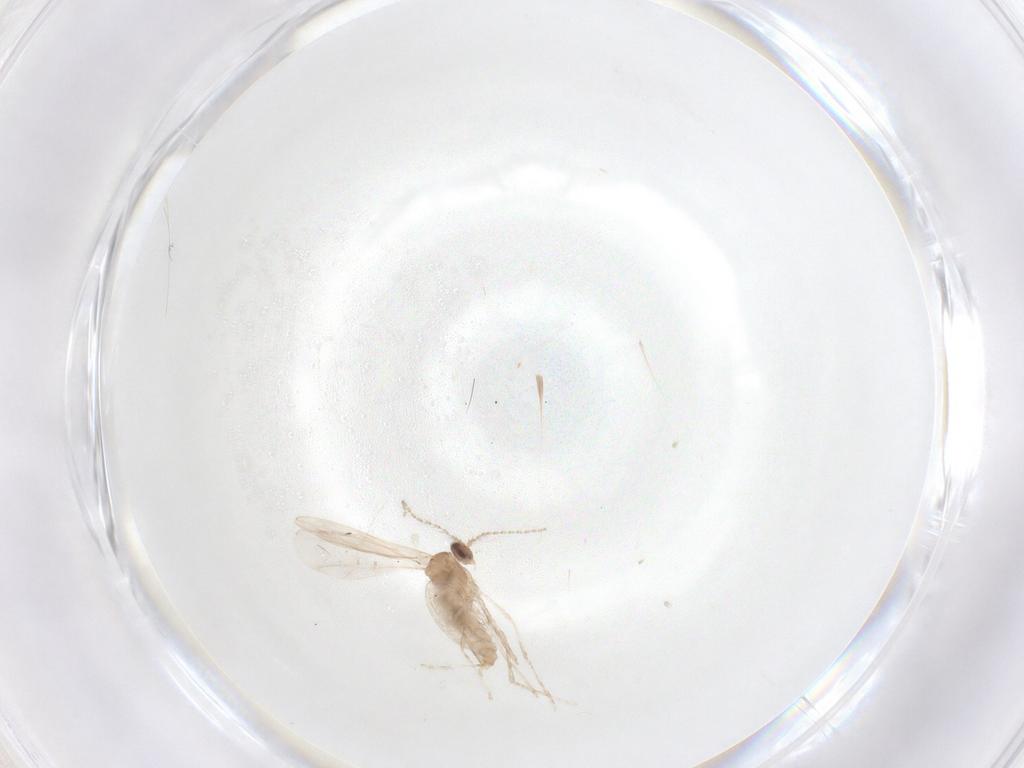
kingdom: Animalia
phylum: Arthropoda
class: Insecta
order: Diptera
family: Cecidomyiidae
